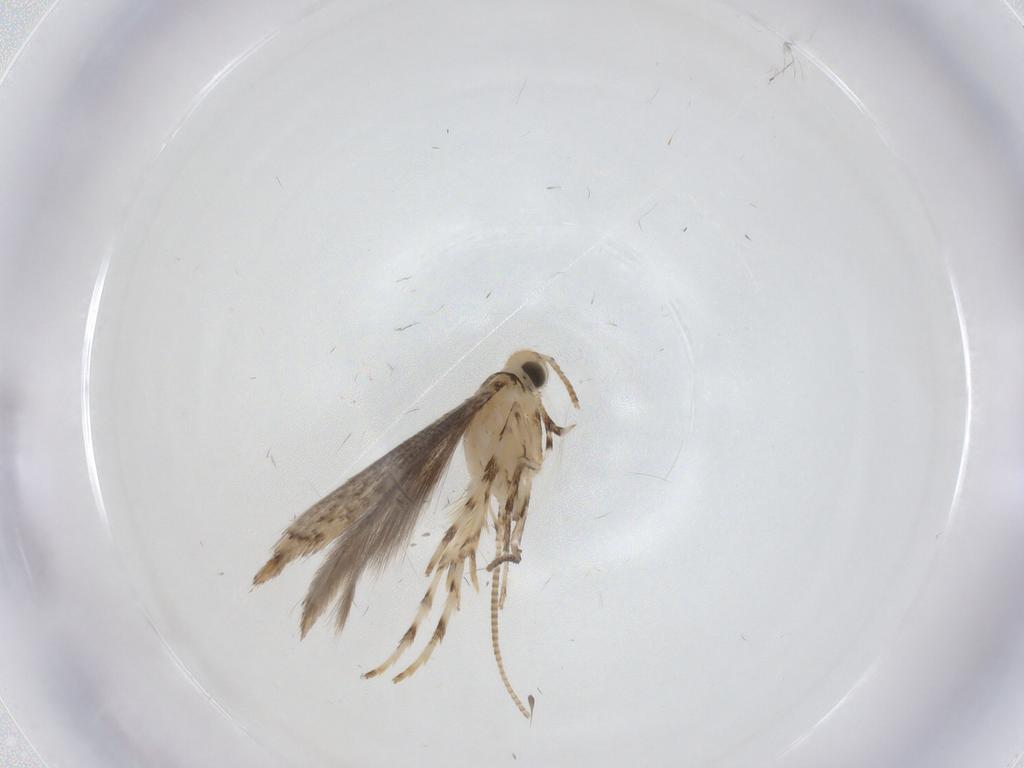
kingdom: Animalia
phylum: Arthropoda
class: Insecta
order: Lepidoptera
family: Gracillariidae
